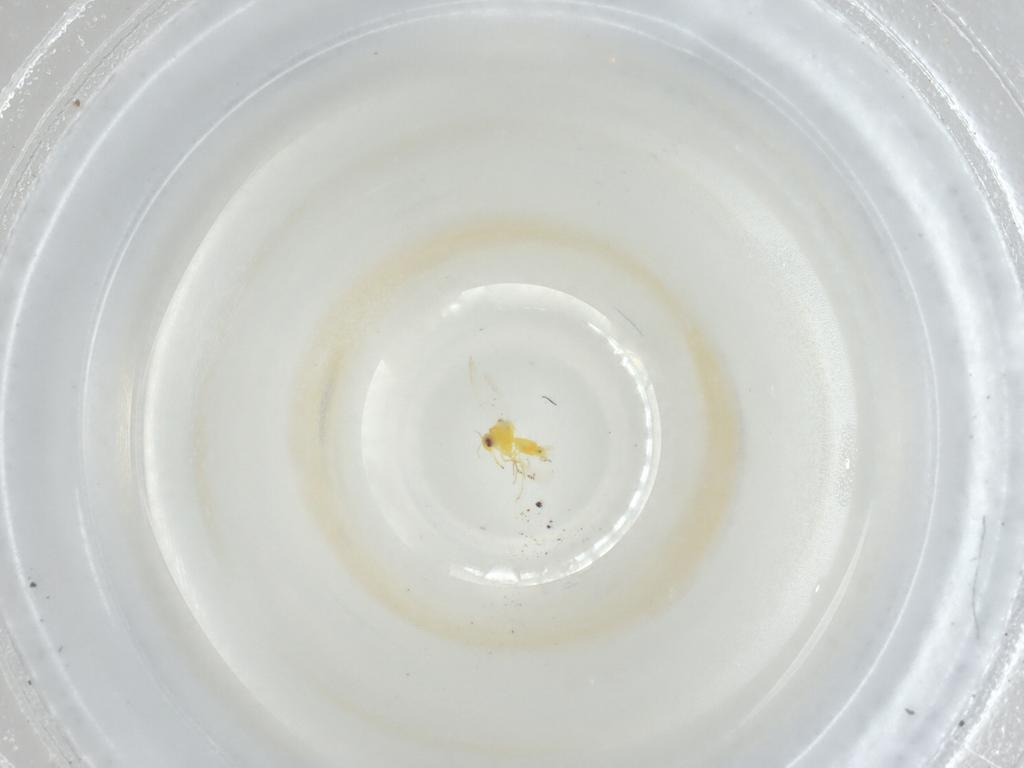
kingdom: Animalia
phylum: Arthropoda
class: Insecta
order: Hemiptera
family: Cicadellidae
